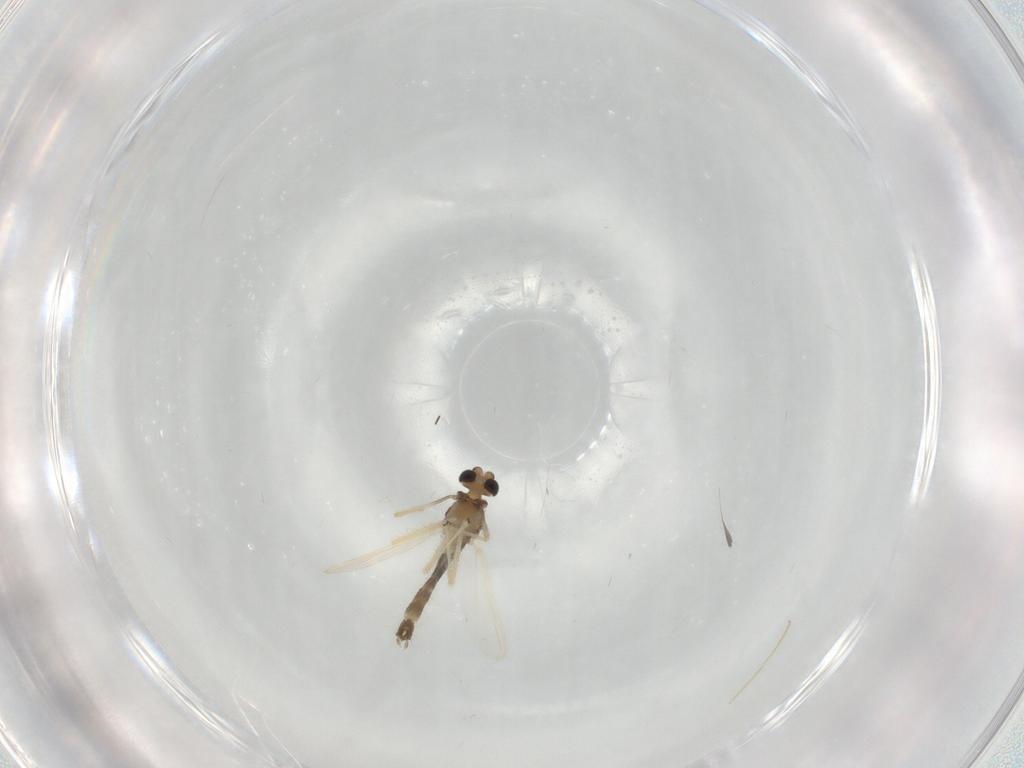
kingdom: Animalia
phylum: Arthropoda
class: Insecta
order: Diptera
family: Chironomidae
